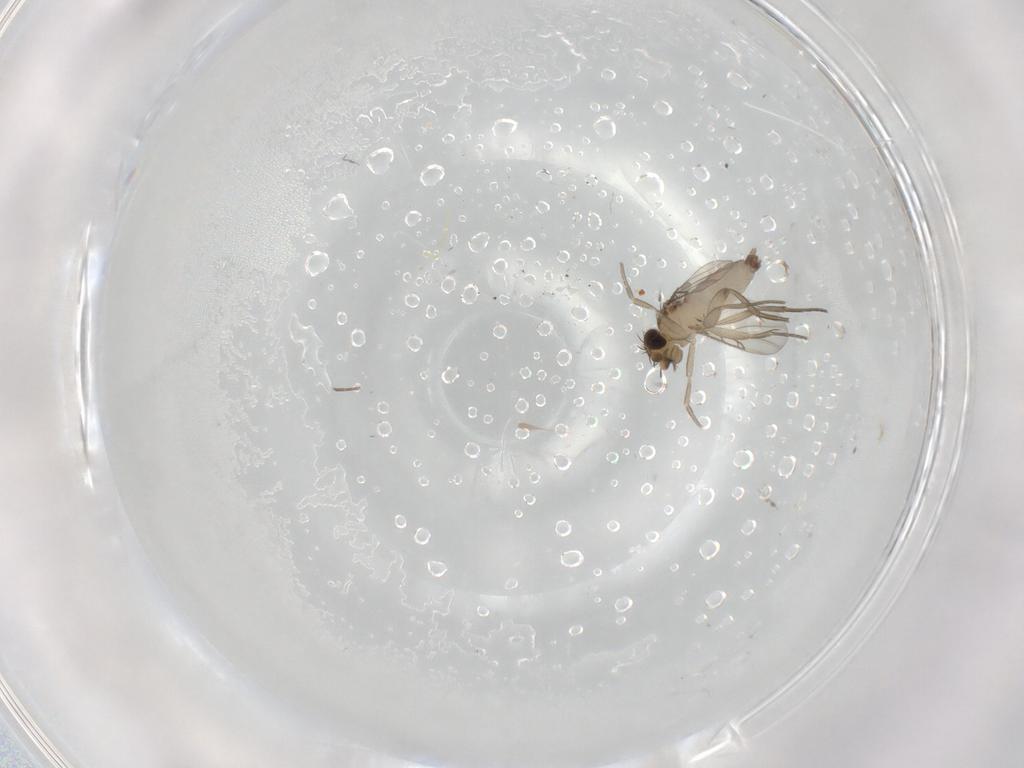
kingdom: Animalia
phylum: Arthropoda
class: Insecta
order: Diptera
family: Phoridae
